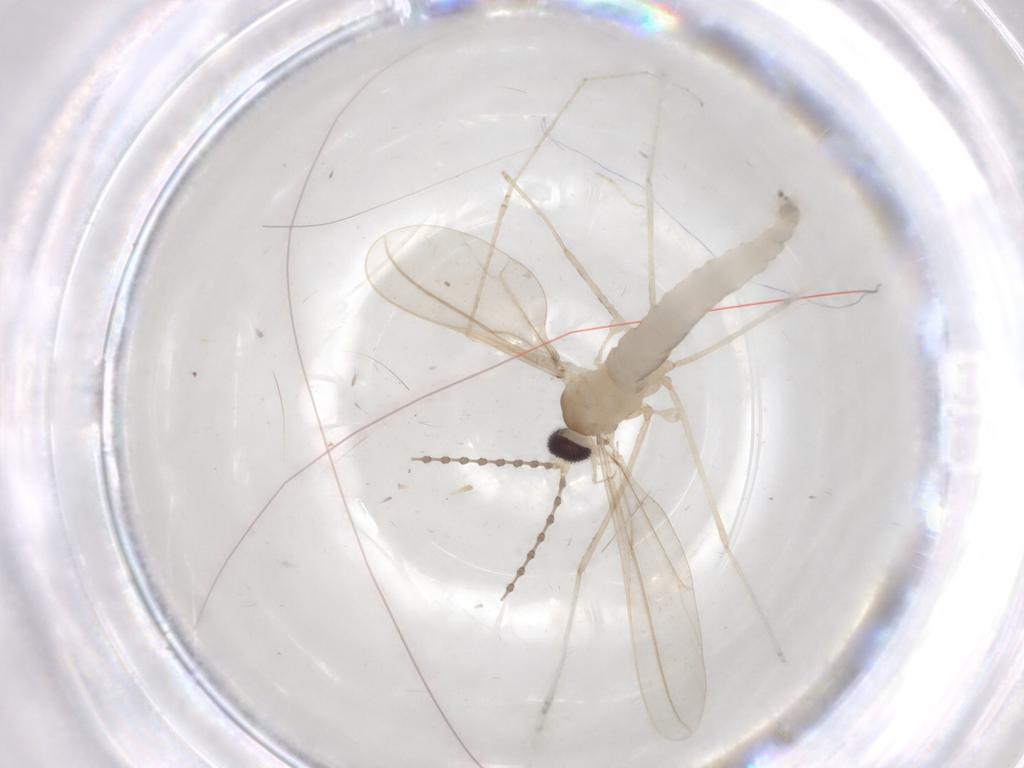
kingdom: Animalia
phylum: Arthropoda
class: Insecta
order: Diptera
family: Cecidomyiidae
